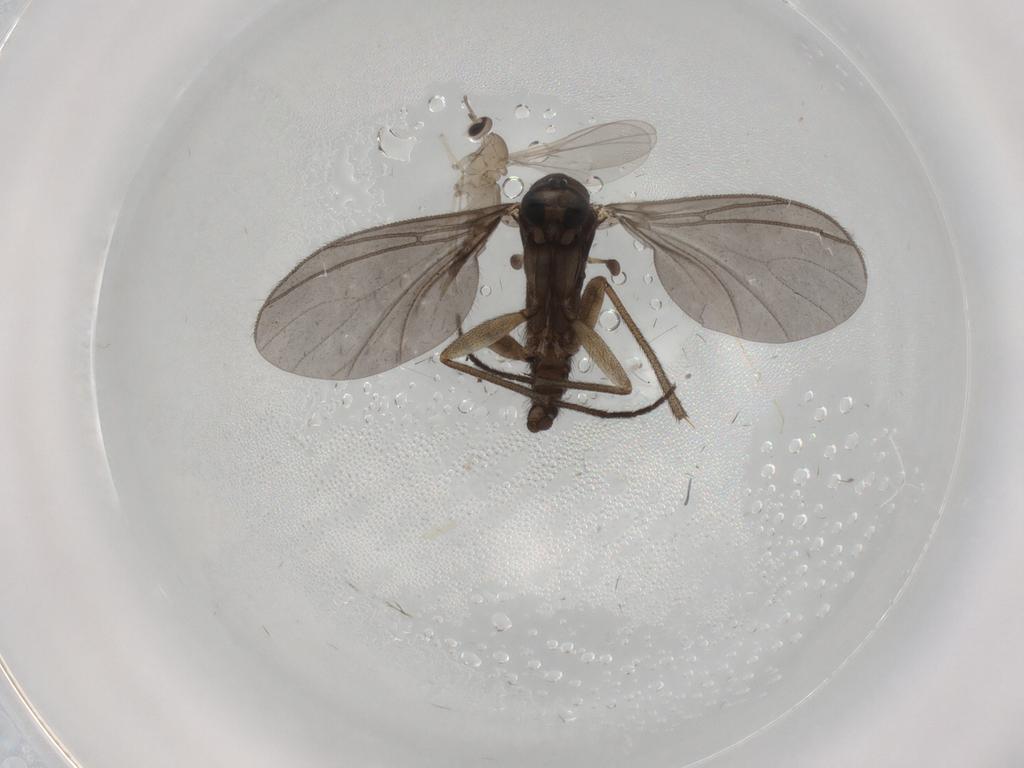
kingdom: Animalia
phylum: Arthropoda
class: Insecta
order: Diptera
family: Sciaridae
